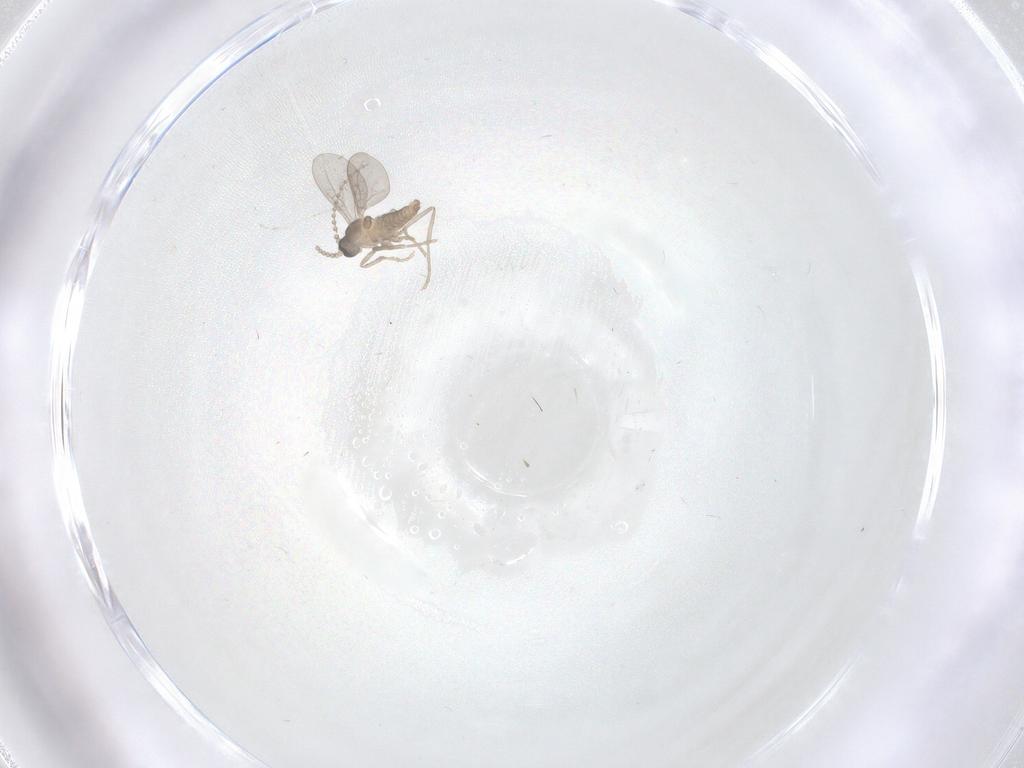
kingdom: Animalia
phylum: Arthropoda
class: Insecta
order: Diptera
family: Cecidomyiidae
